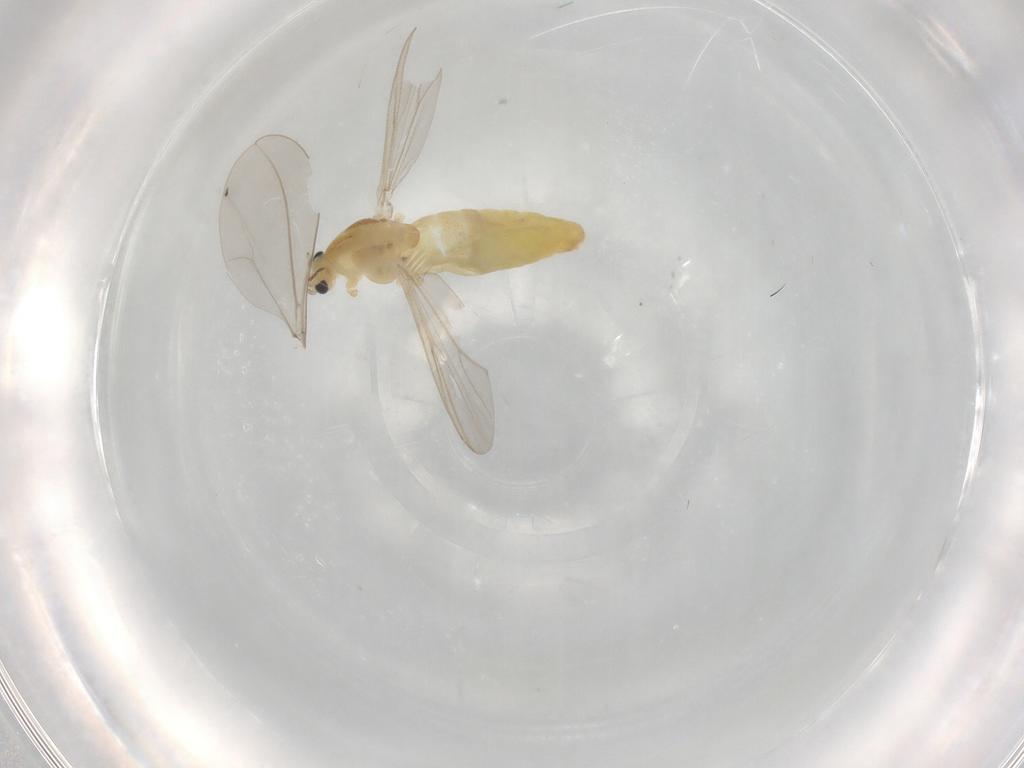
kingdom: Animalia
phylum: Arthropoda
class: Insecta
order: Diptera
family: Chironomidae
